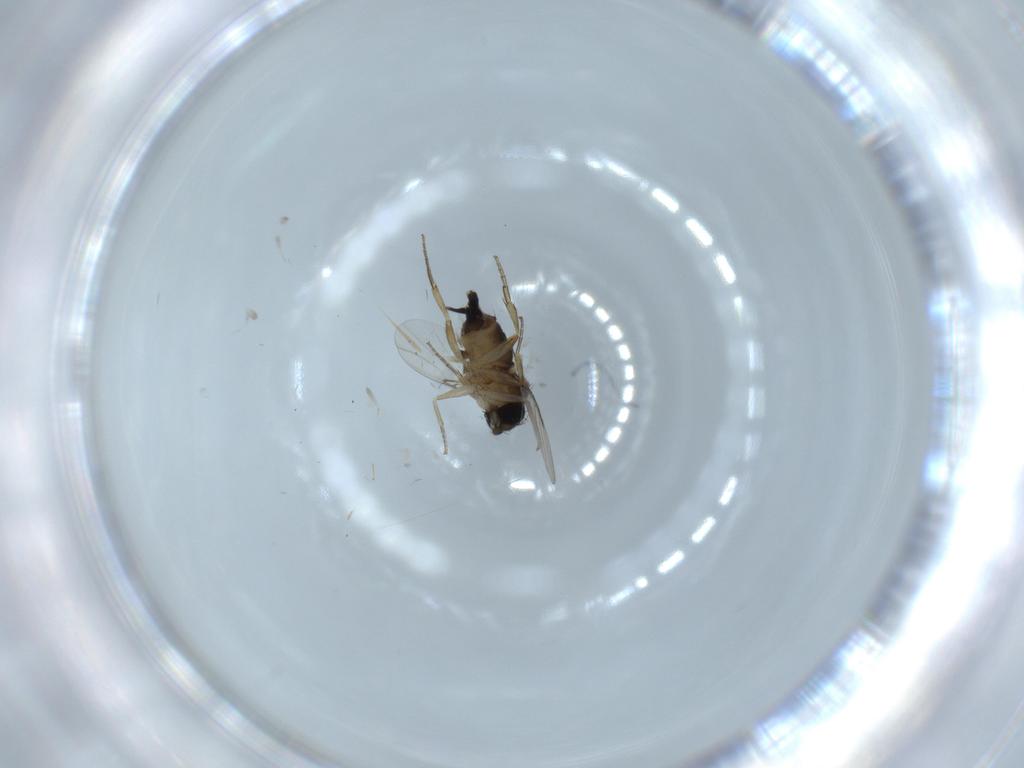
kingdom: Animalia
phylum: Arthropoda
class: Insecta
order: Diptera
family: Phoridae
